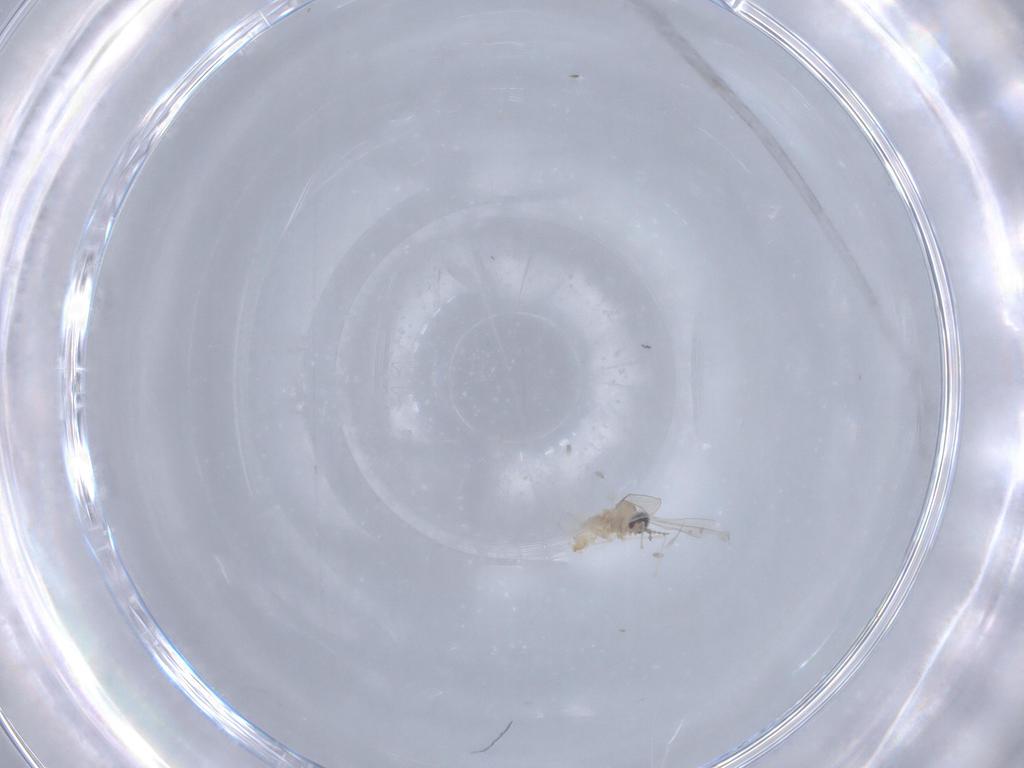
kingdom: Animalia
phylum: Arthropoda
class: Insecta
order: Diptera
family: Cecidomyiidae
